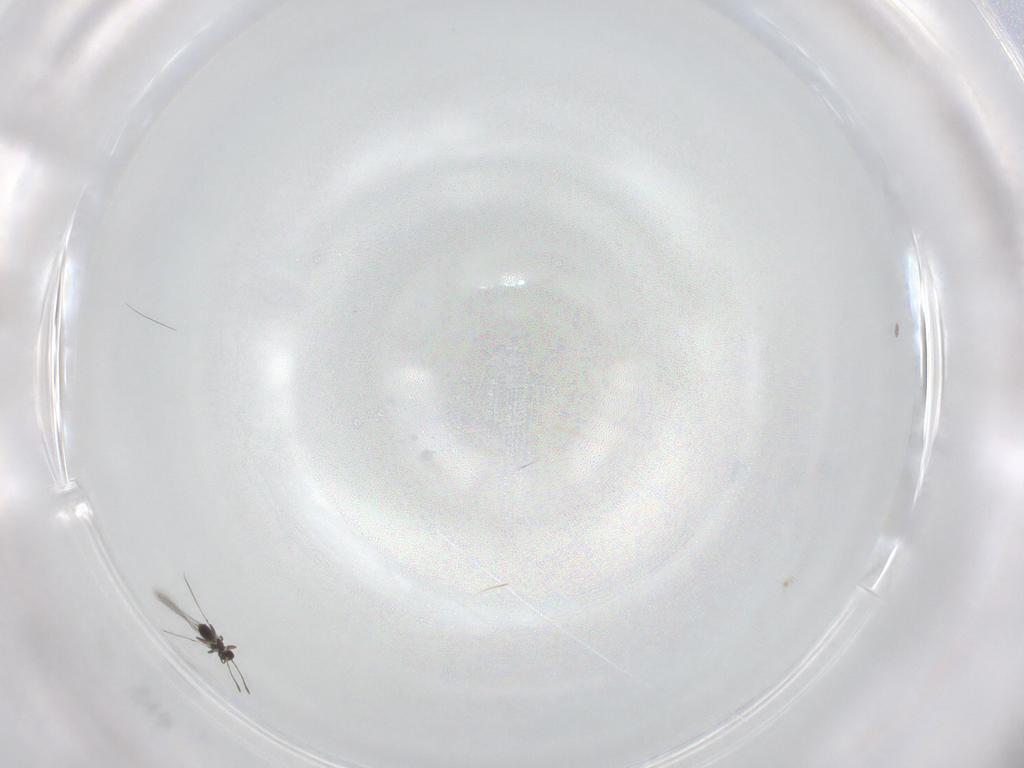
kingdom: Animalia
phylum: Arthropoda
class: Insecta
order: Hymenoptera
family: Mymaridae
